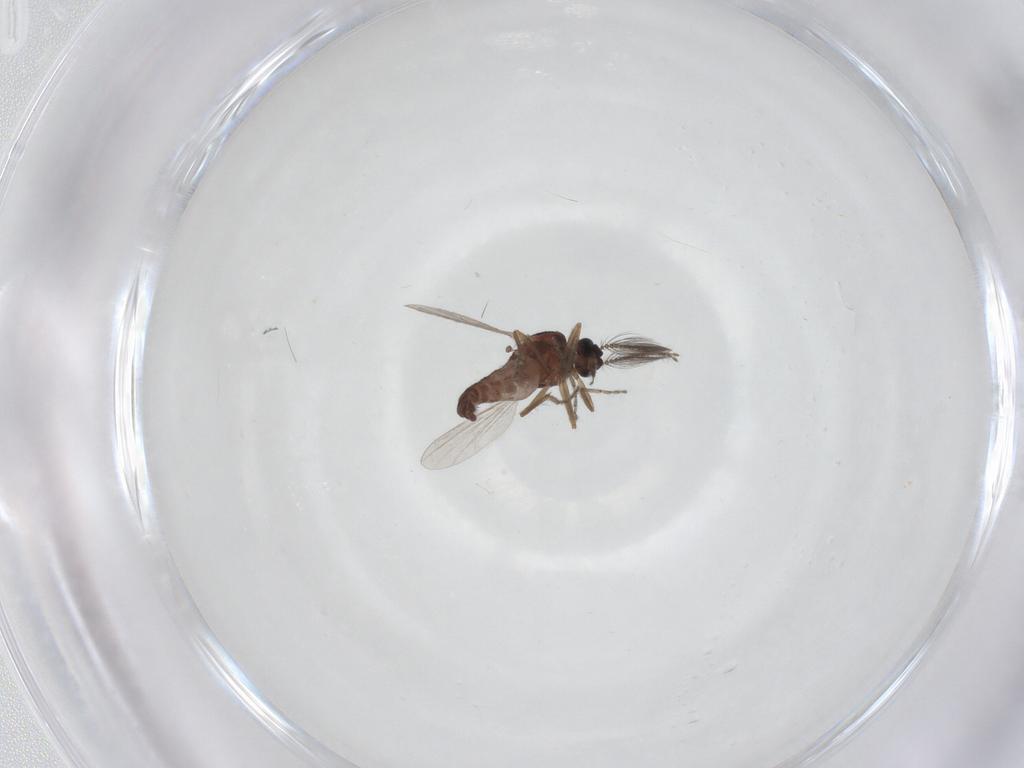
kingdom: Animalia
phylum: Arthropoda
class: Insecta
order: Diptera
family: Ceratopogonidae
